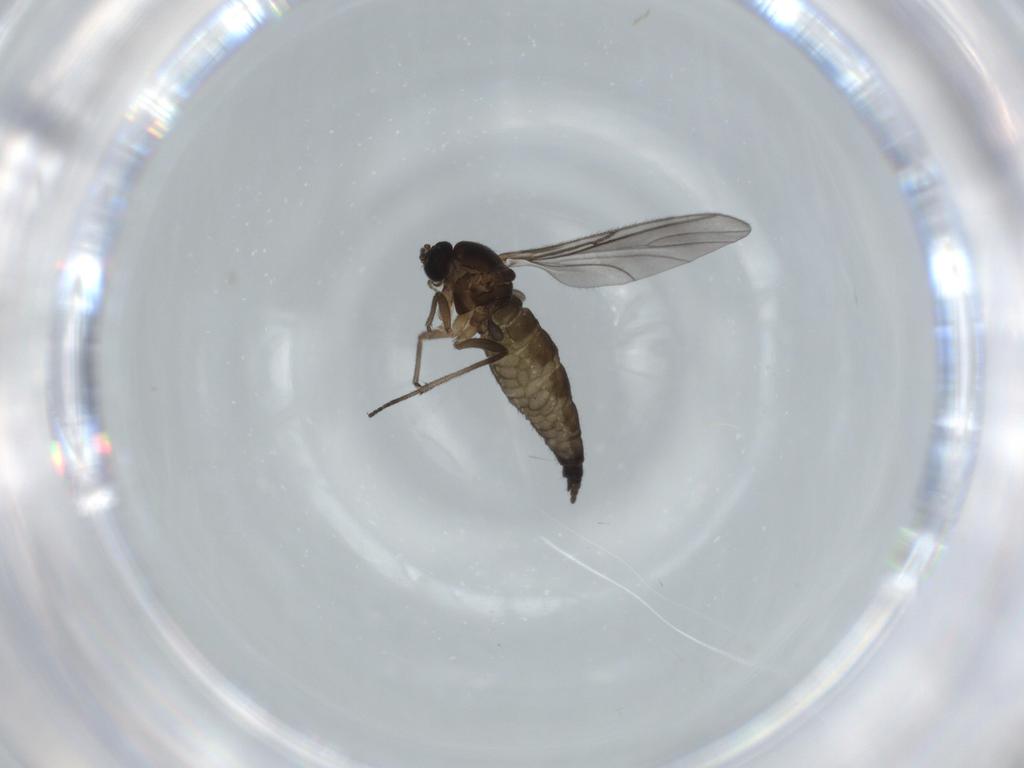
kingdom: Animalia
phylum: Arthropoda
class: Insecta
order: Diptera
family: Sciaridae
